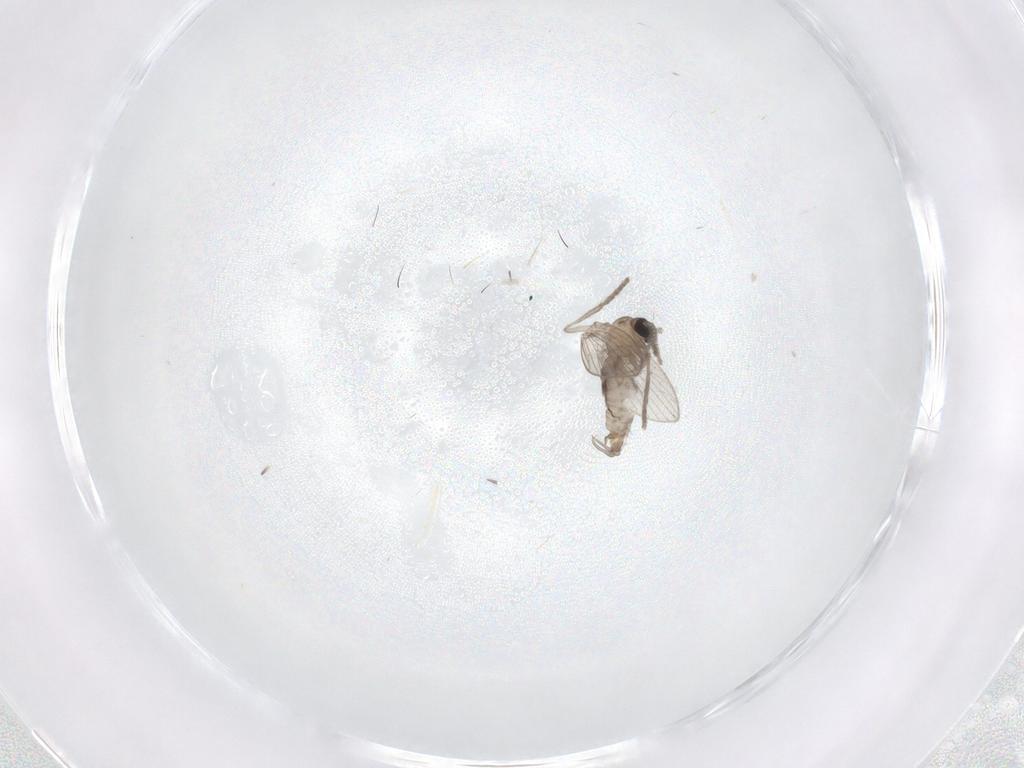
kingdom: Animalia
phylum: Arthropoda
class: Insecta
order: Diptera
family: Psychodidae
